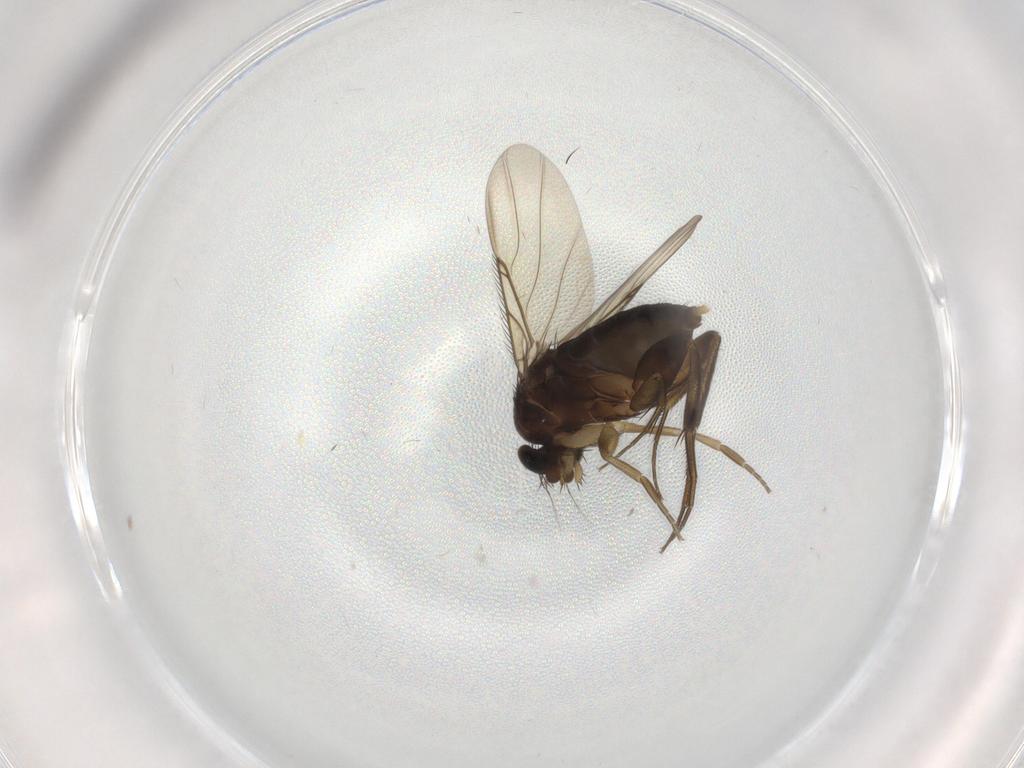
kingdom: Animalia
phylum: Arthropoda
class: Insecta
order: Diptera
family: Phoridae
